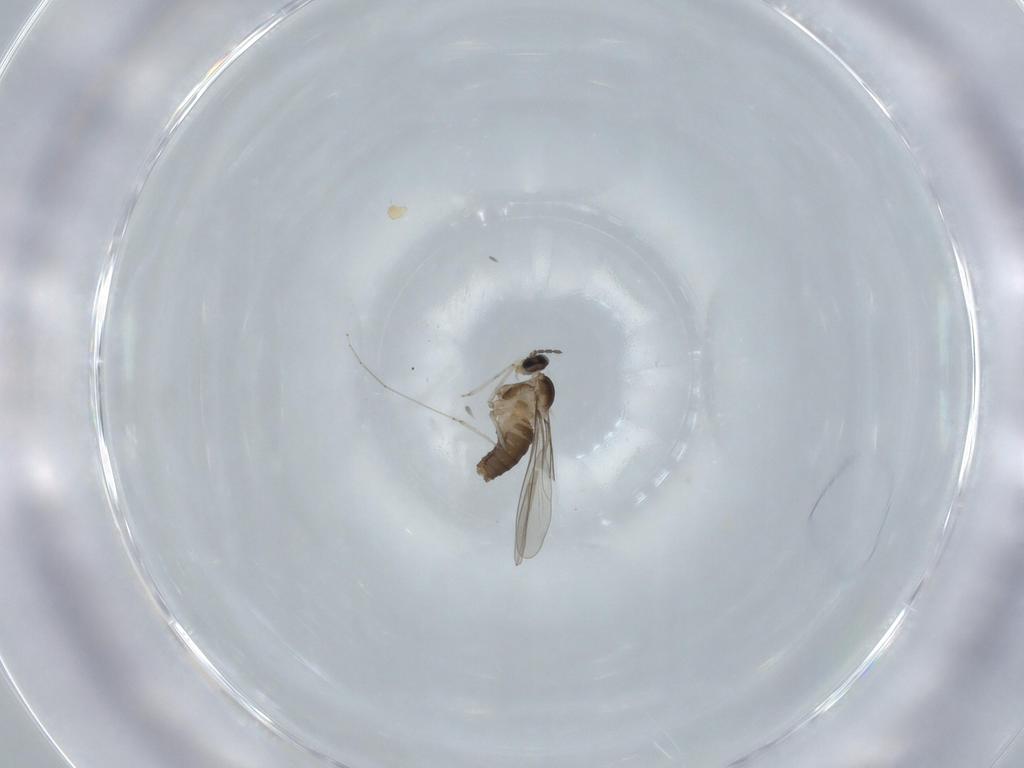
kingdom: Animalia
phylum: Arthropoda
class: Insecta
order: Diptera
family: Cecidomyiidae
